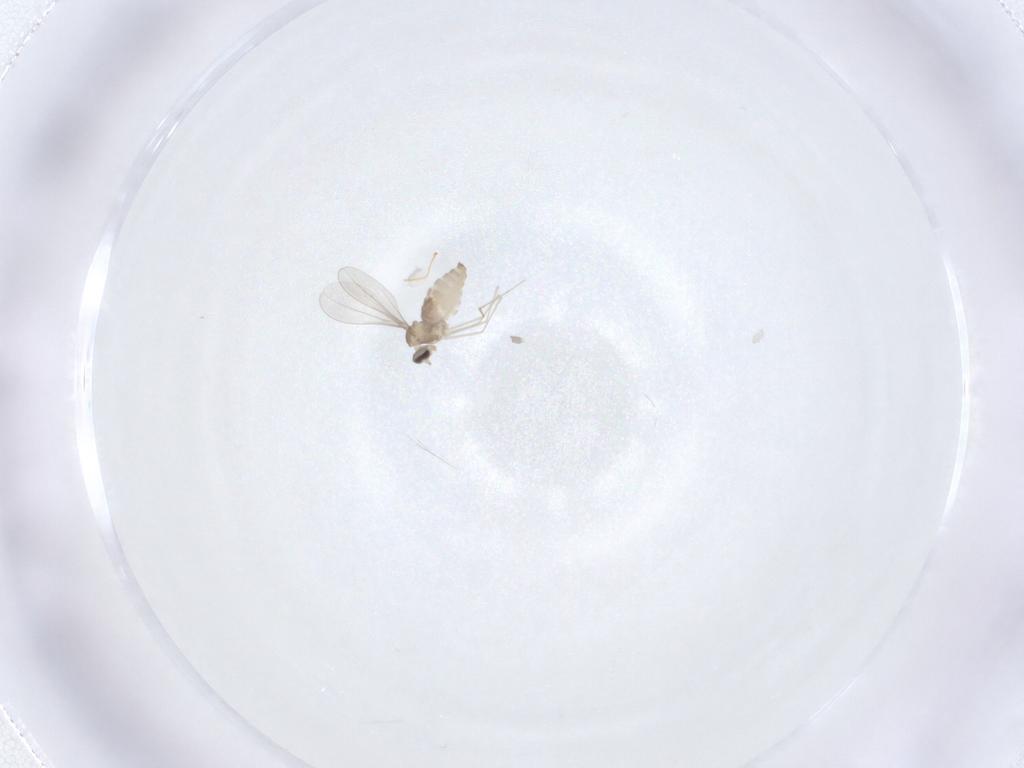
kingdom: Animalia
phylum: Arthropoda
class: Insecta
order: Diptera
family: Cecidomyiidae
